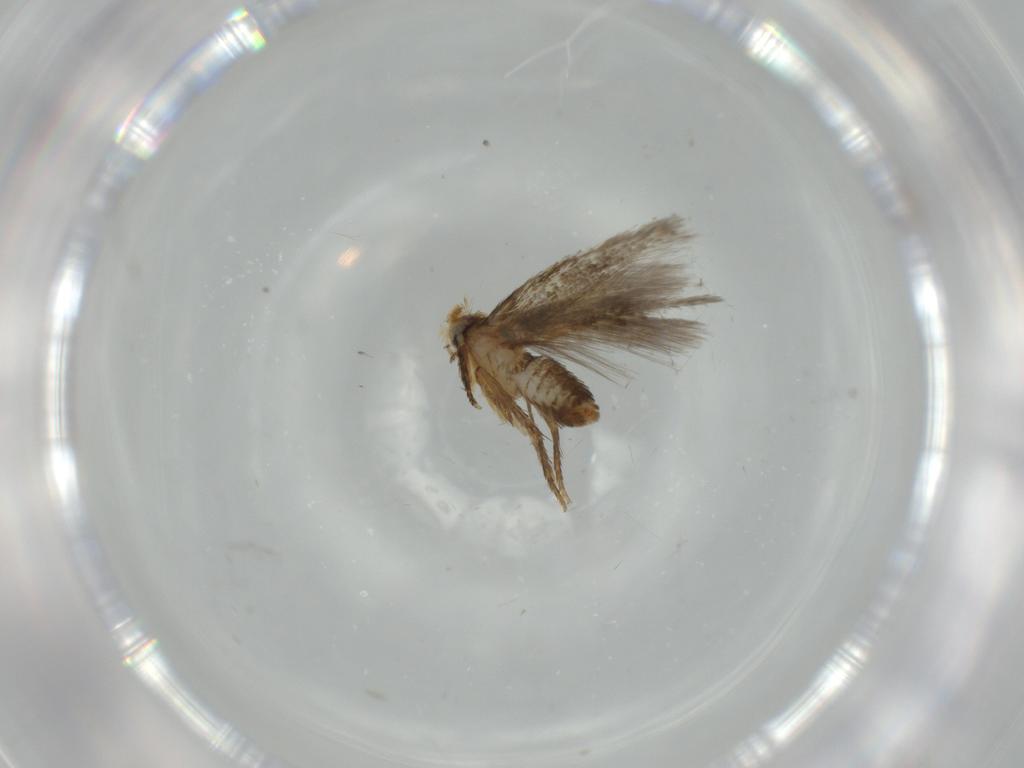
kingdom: Animalia
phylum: Arthropoda
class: Insecta
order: Lepidoptera
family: Nepticulidae
